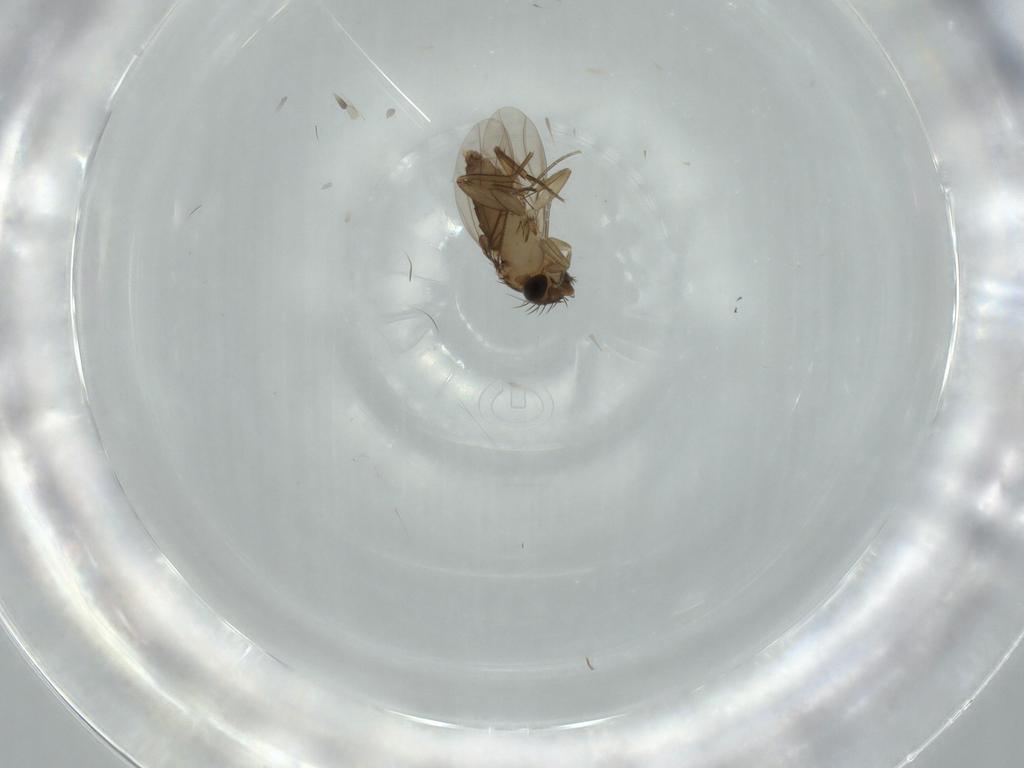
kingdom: Animalia
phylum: Arthropoda
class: Insecta
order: Diptera
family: Phoridae
